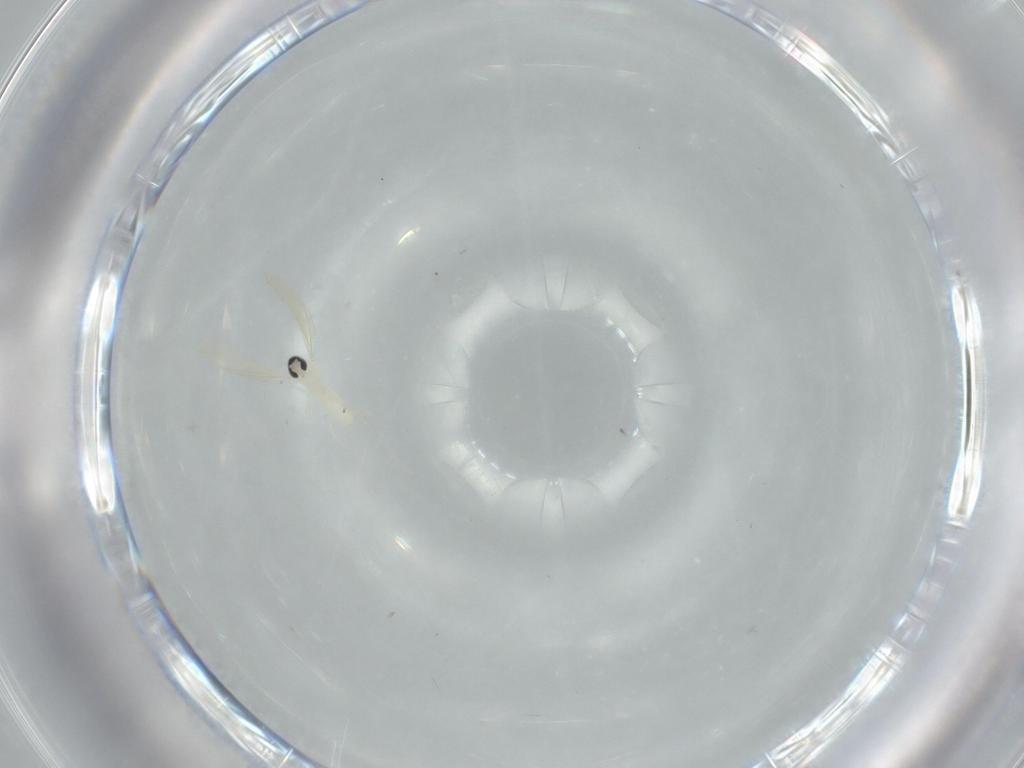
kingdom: Animalia
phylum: Arthropoda
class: Insecta
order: Diptera
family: Cecidomyiidae
